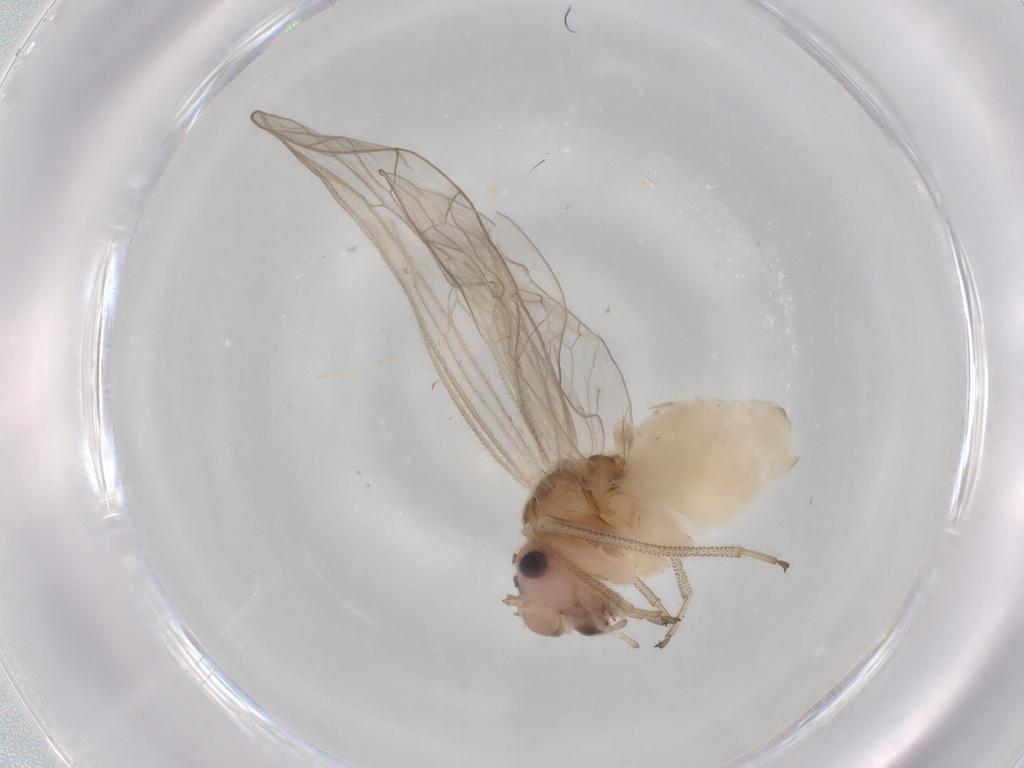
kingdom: Animalia
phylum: Arthropoda
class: Insecta
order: Psocodea
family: Stenopsocidae
